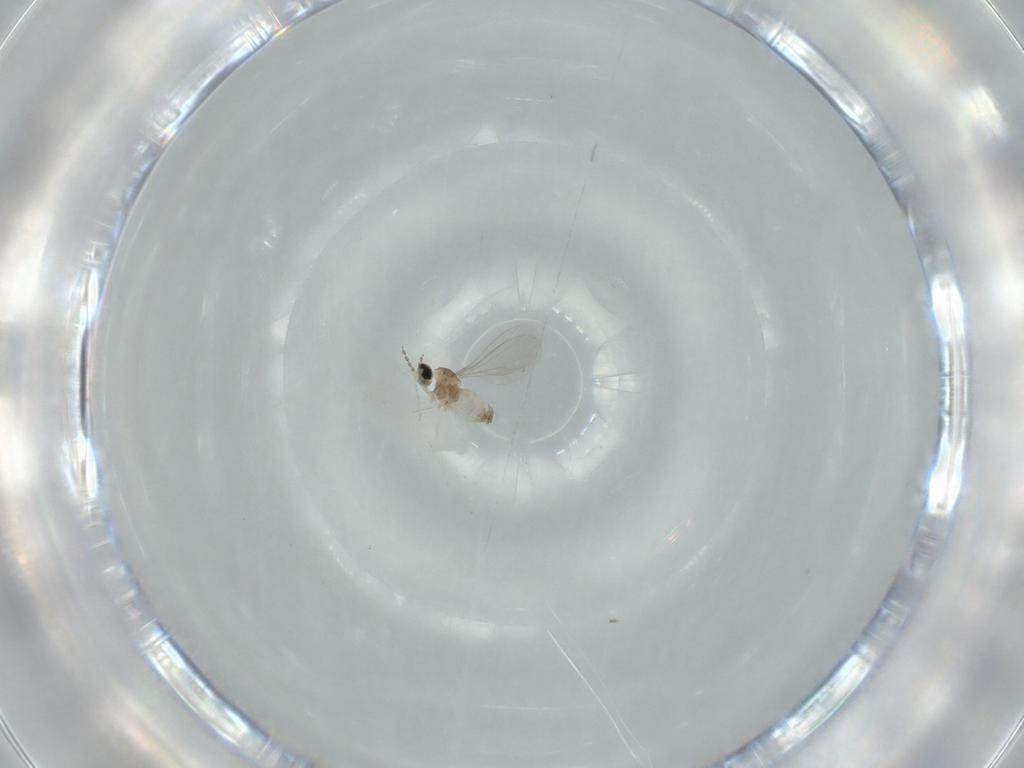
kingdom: Animalia
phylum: Arthropoda
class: Insecta
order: Diptera
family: Cecidomyiidae
